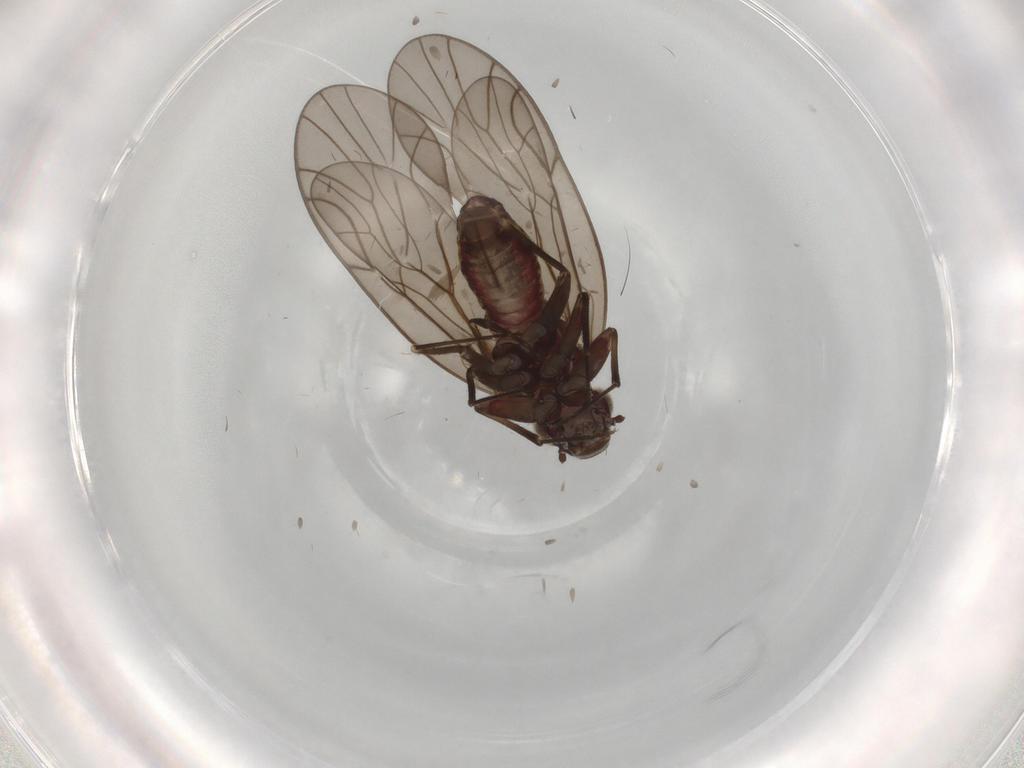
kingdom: Animalia
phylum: Arthropoda
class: Insecta
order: Psocodea
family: Philotarsidae
